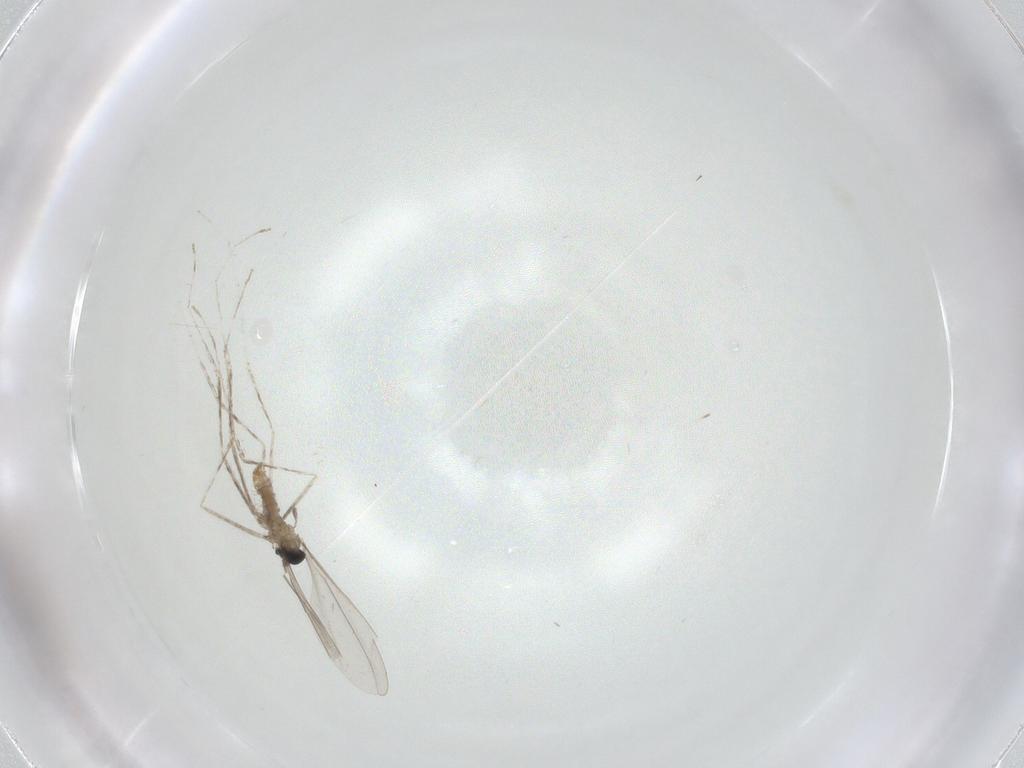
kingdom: Animalia
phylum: Arthropoda
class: Insecta
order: Diptera
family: Cecidomyiidae
